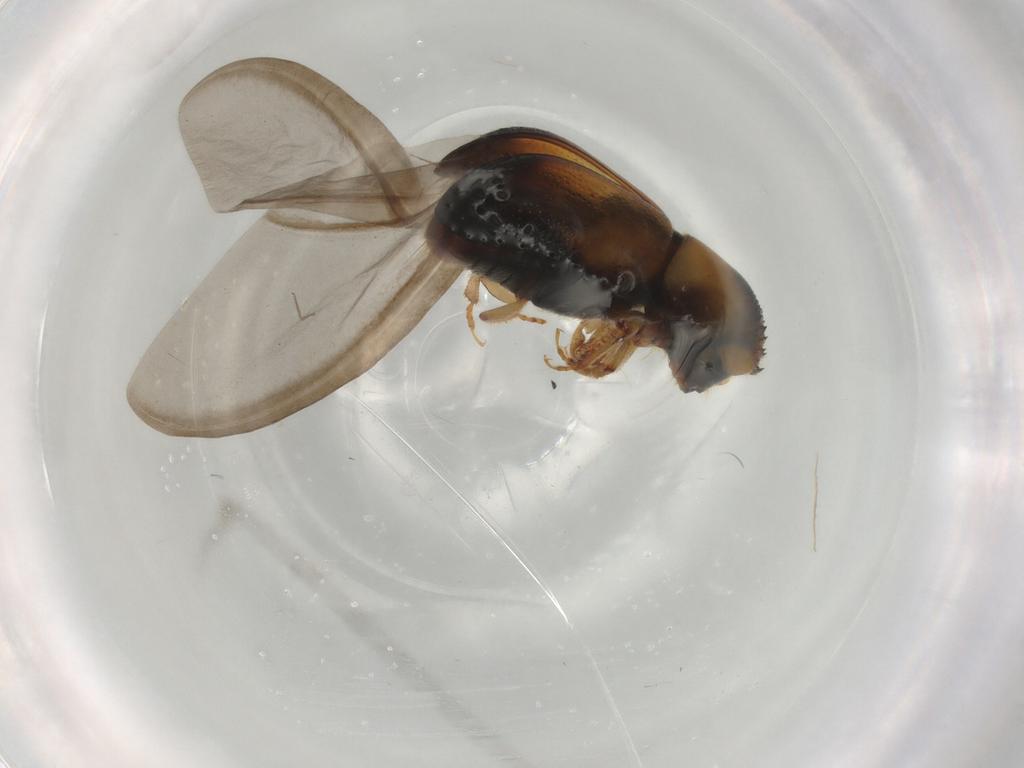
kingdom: Animalia
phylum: Arthropoda
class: Insecta
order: Coleoptera
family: Curculionidae
